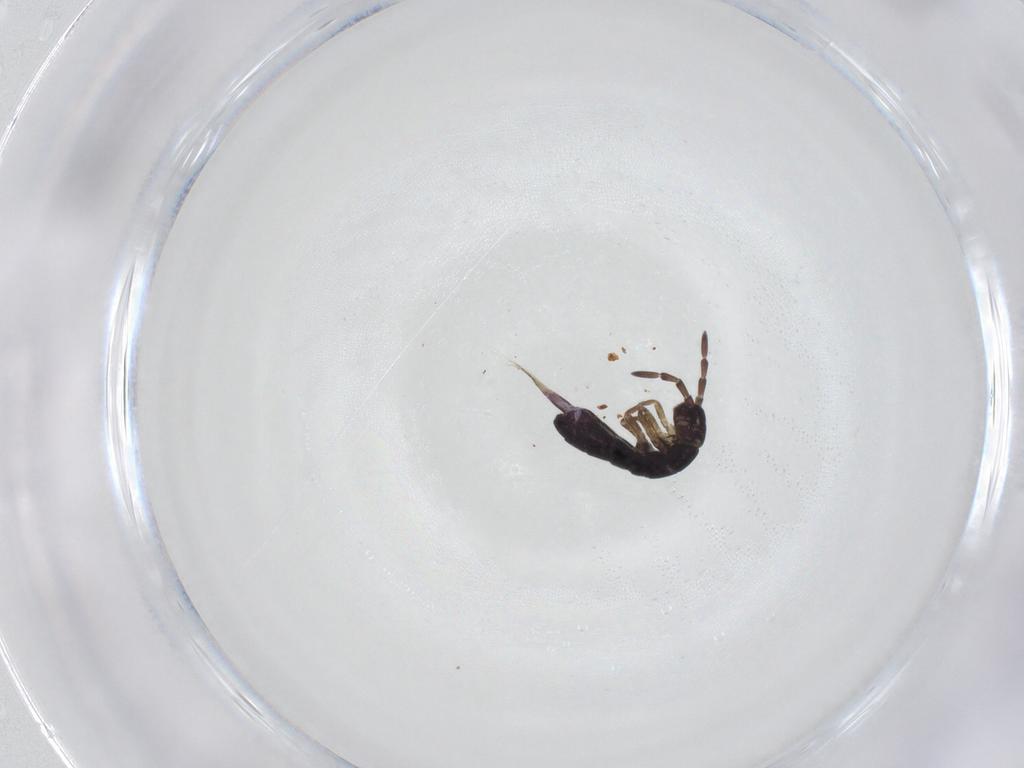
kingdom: Animalia
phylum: Arthropoda
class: Collembola
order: Entomobryomorpha
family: Isotomidae
